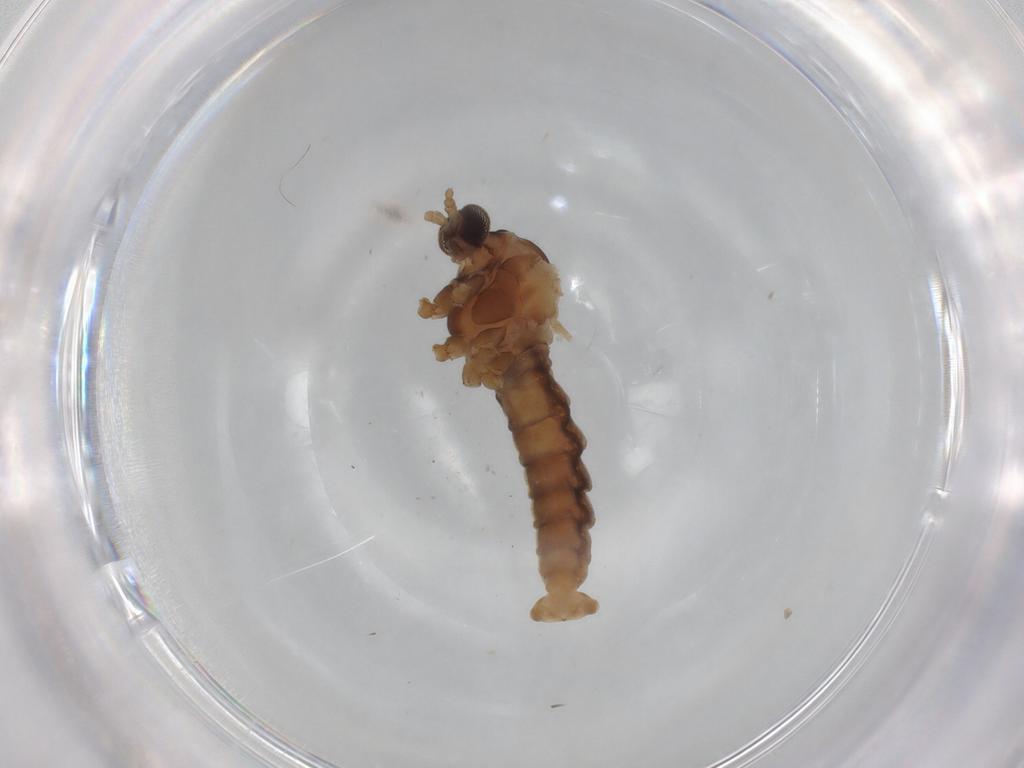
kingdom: Animalia
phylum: Arthropoda
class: Insecta
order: Diptera
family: Cecidomyiidae
